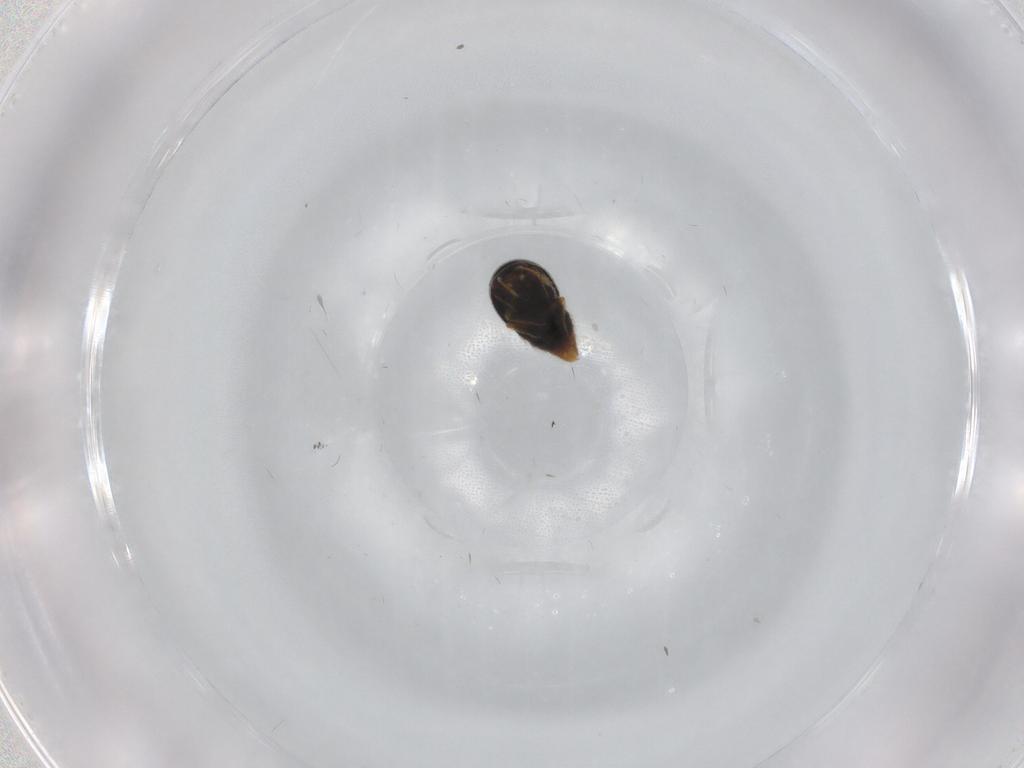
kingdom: Animalia
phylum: Arthropoda
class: Insecta
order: Coleoptera
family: Staphylinidae
